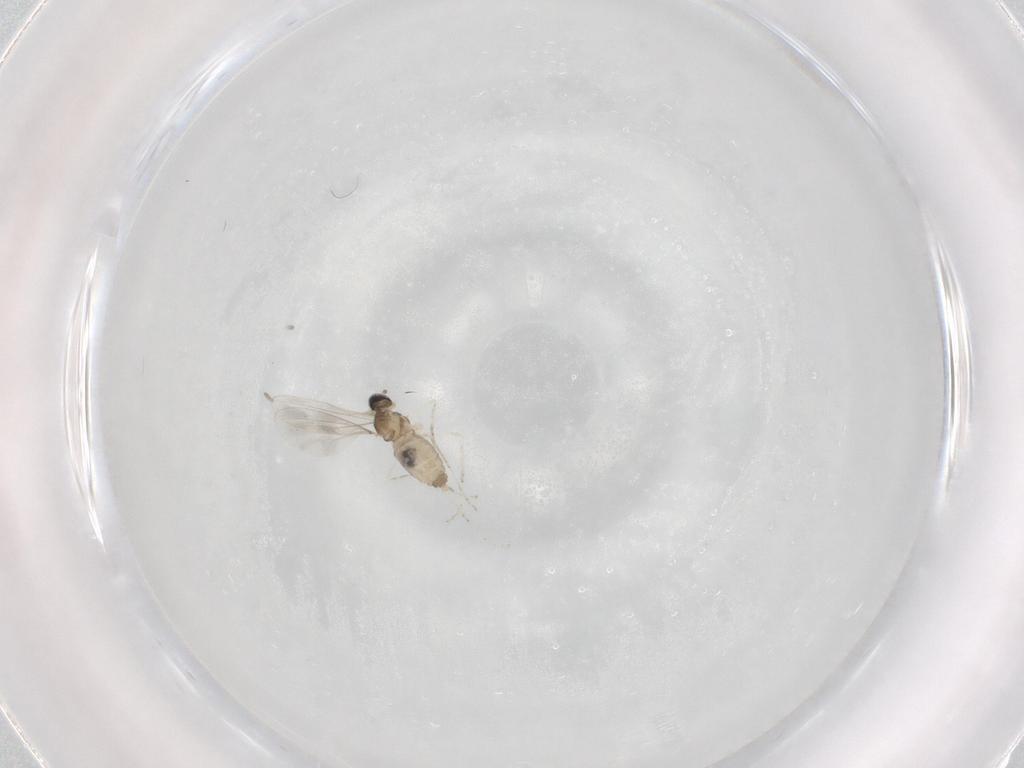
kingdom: Animalia
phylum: Arthropoda
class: Insecta
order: Diptera
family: Cecidomyiidae
